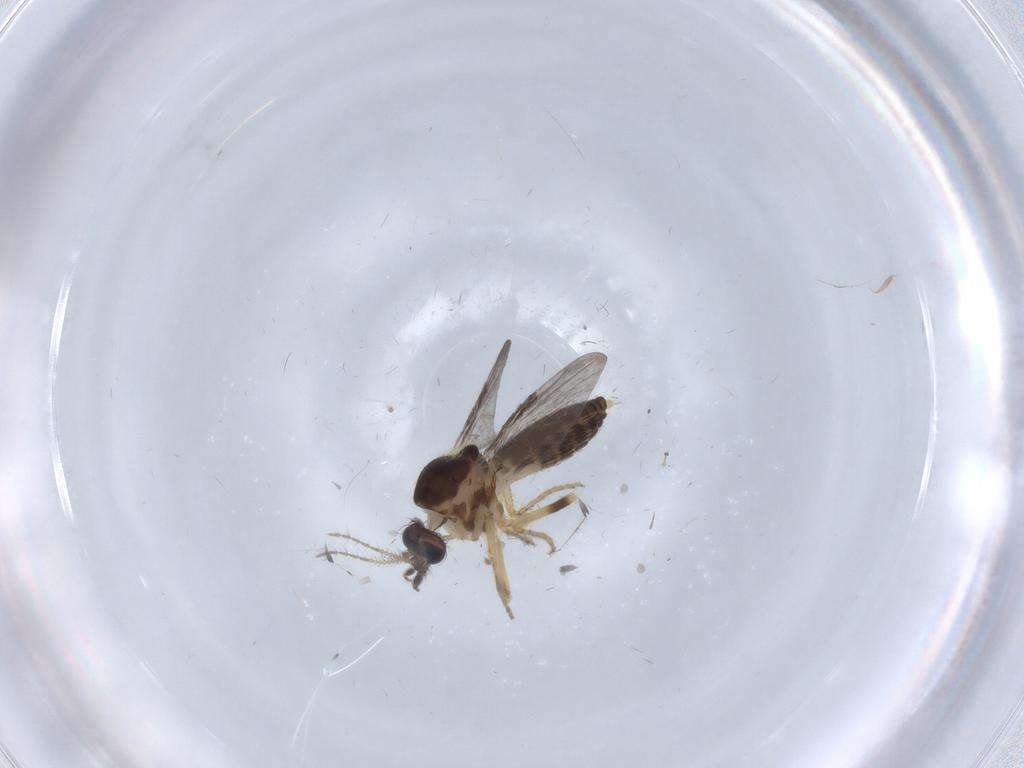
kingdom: Animalia
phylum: Arthropoda
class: Insecta
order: Diptera
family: Ceratopogonidae
